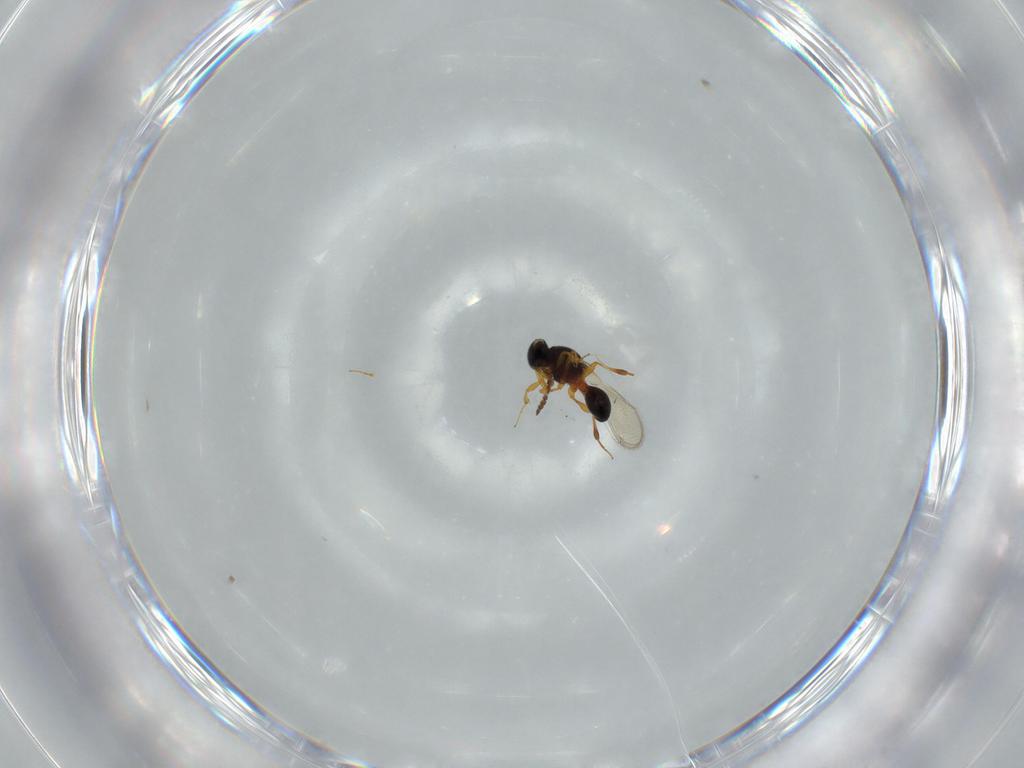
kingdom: Animalia
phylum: Arthropoda
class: Insecta
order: Hymenoptera
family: Platygastridae
